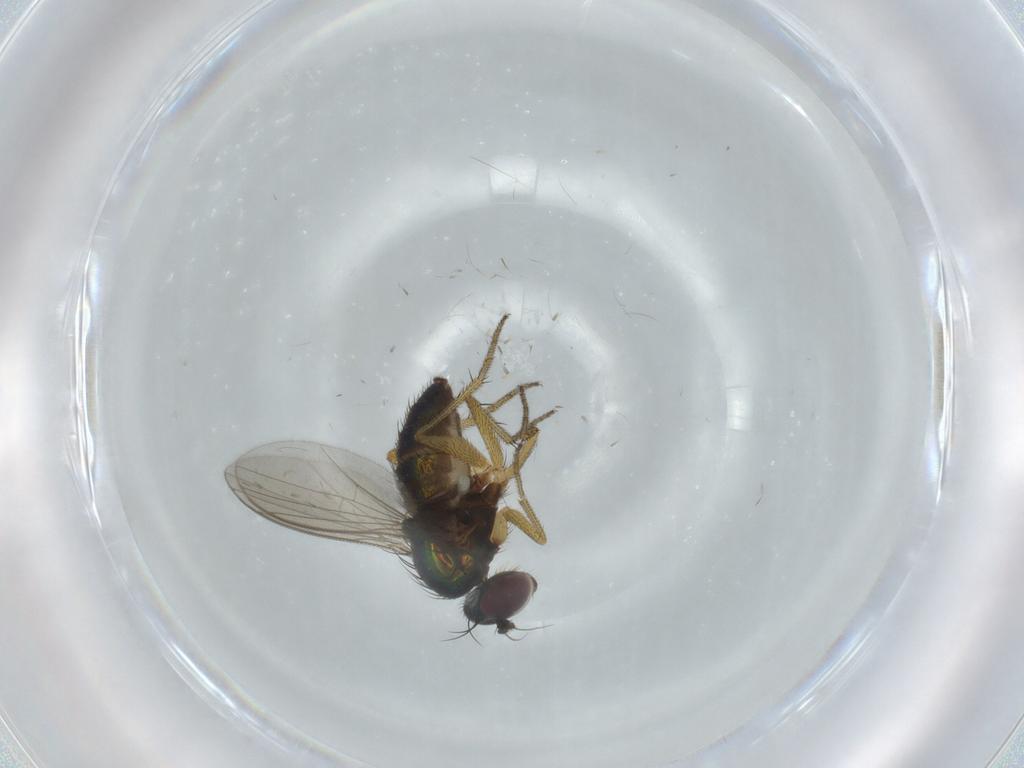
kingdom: Animalia
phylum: Arthropoda
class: Insecta
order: Diptera
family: Dolichopodidae
